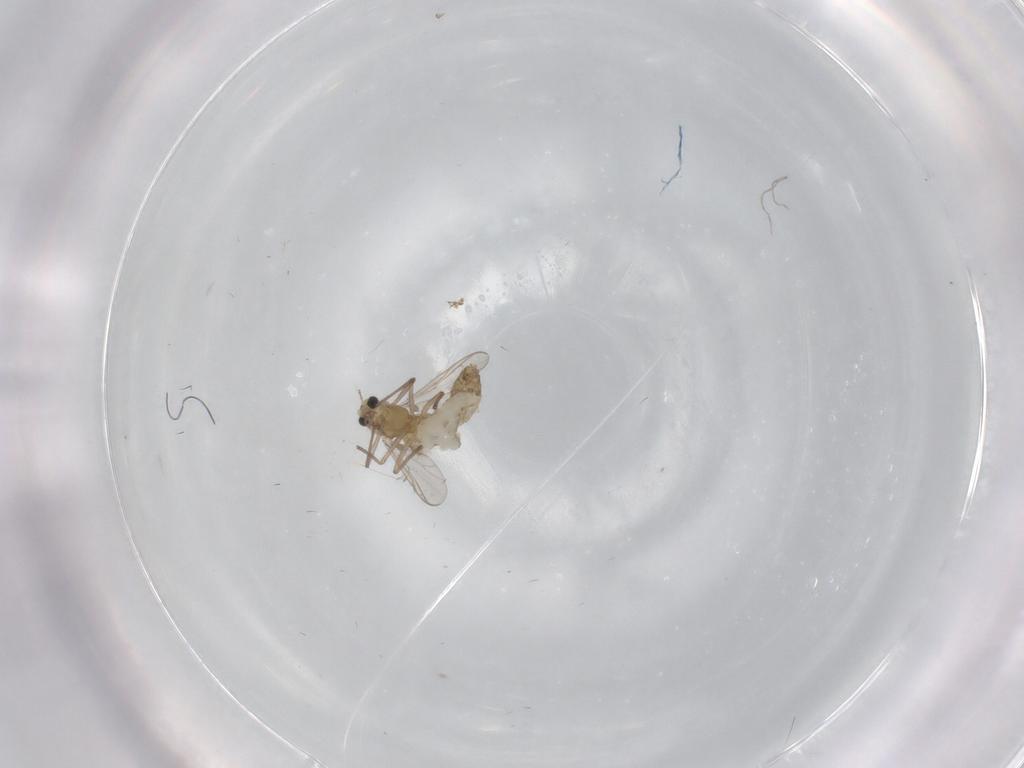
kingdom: Animalia
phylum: Arthropoda
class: Insecta
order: Diptera
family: Chironomidae
